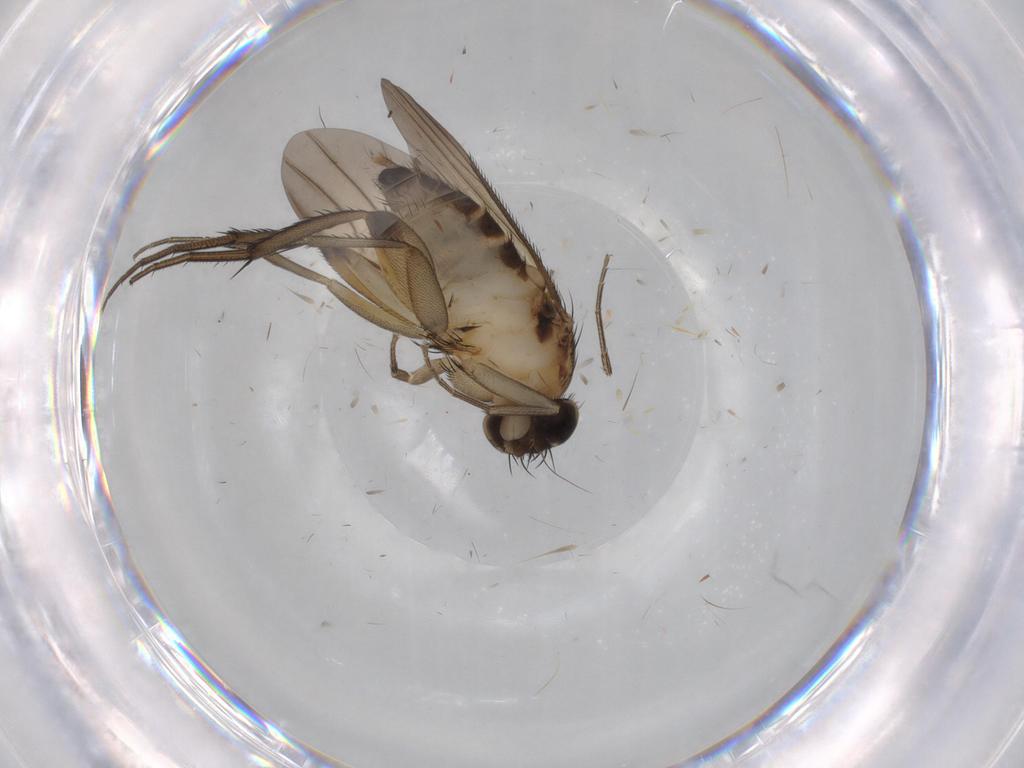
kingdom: Animalia
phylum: Arthropoda
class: Insecta
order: Diptera
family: Phoridae
